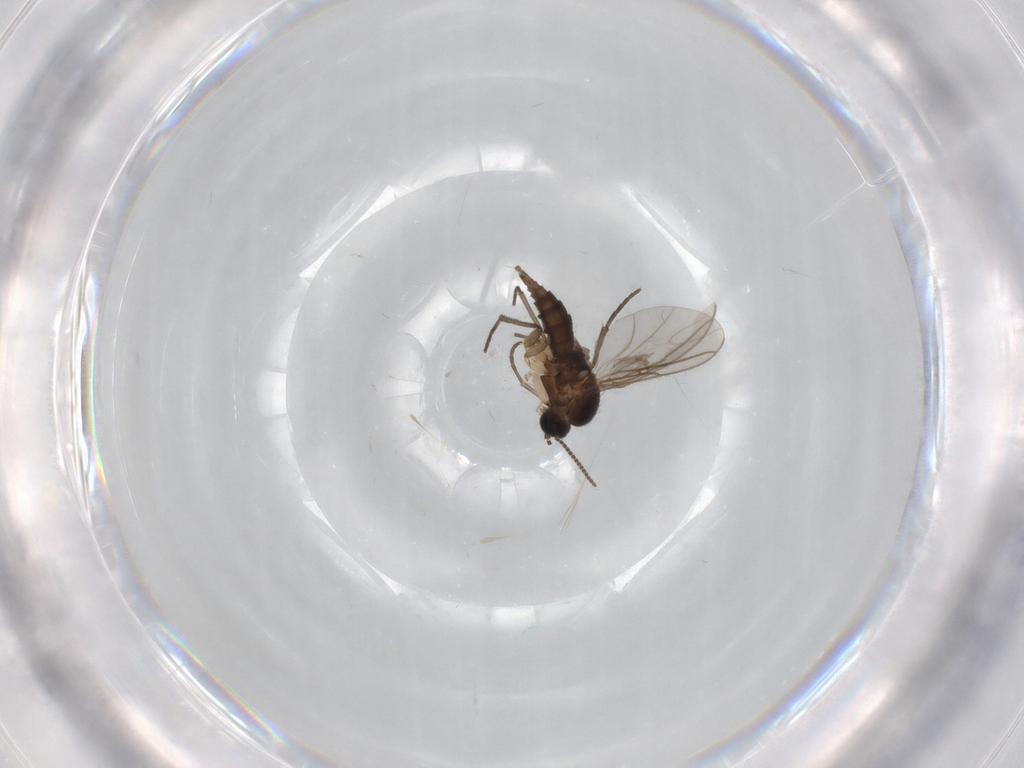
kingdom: Animalia
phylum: Arthropoda
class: Insecta
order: Diptera
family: Sciaridae
